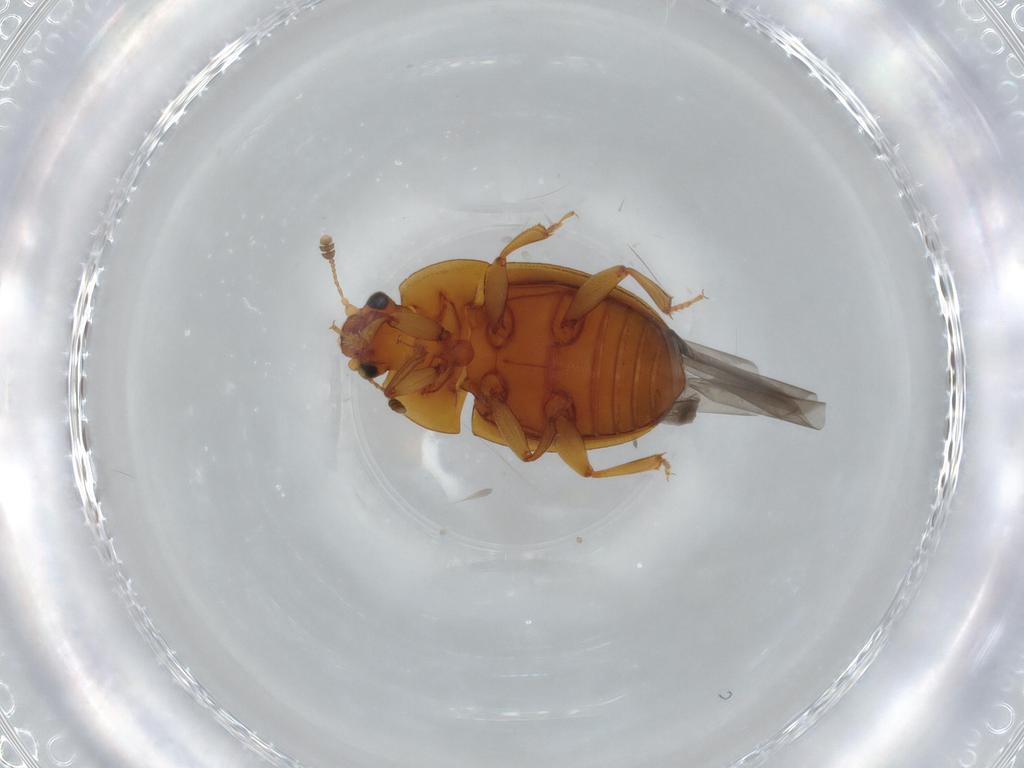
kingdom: Animalia
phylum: Arthropoda
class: Insecta
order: Coleoptera
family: Nitidulidae
